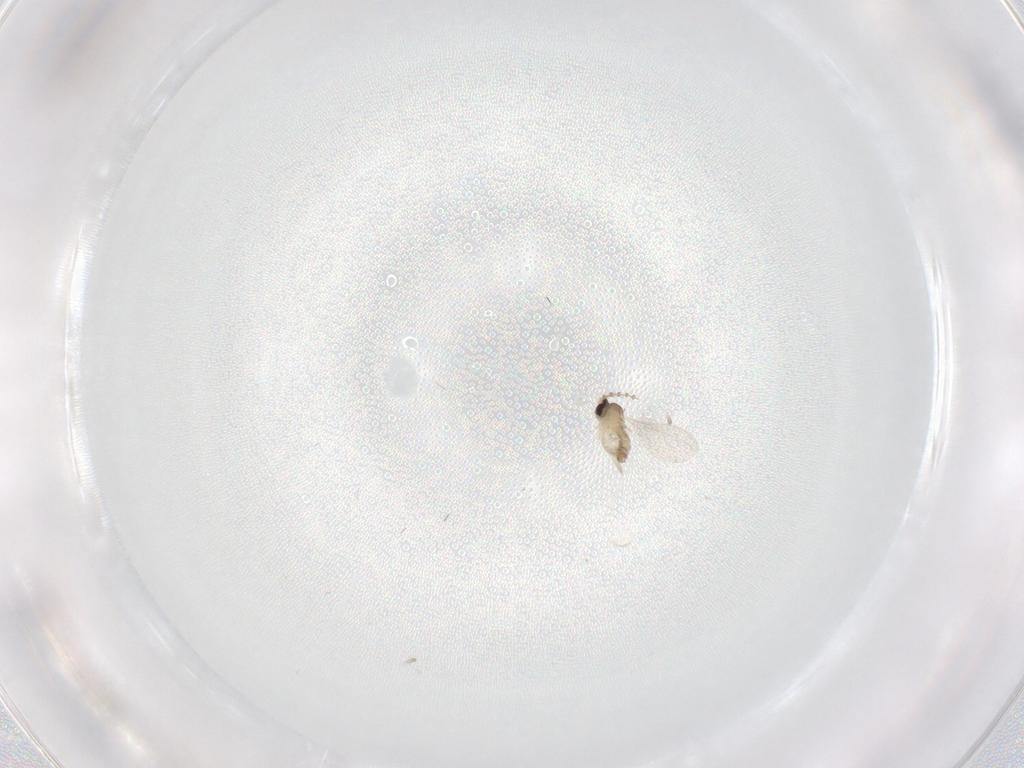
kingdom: Animalia
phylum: Arthropoda
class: Insecta
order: Diptera
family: Cecidomyiidae
